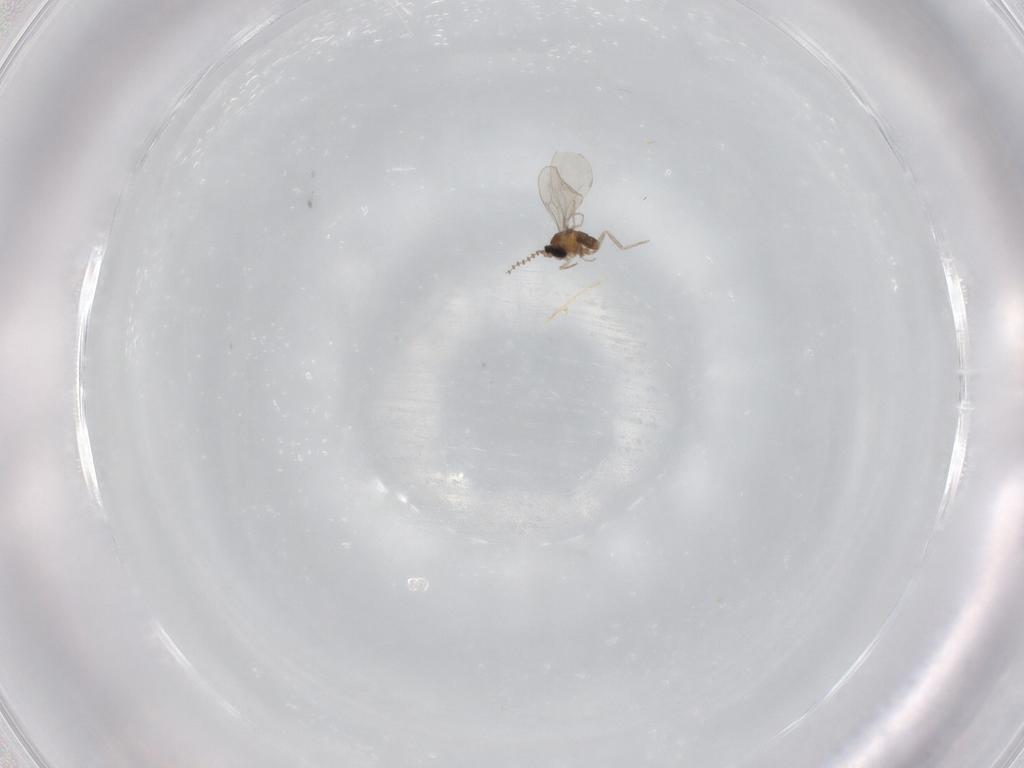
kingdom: Animalia
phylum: Arthropoda
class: Insecta
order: Diptera
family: Cecidomyiidae
